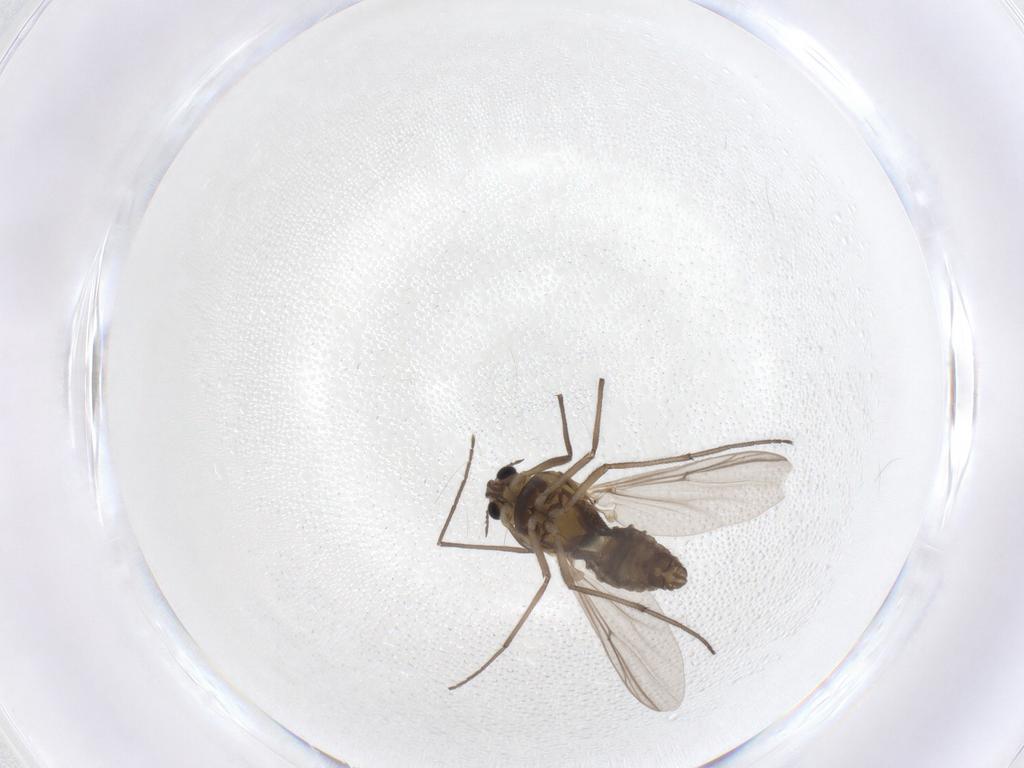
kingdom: Animalia
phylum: Arthropoda
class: Insecta
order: Diptera
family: Chironomidae
